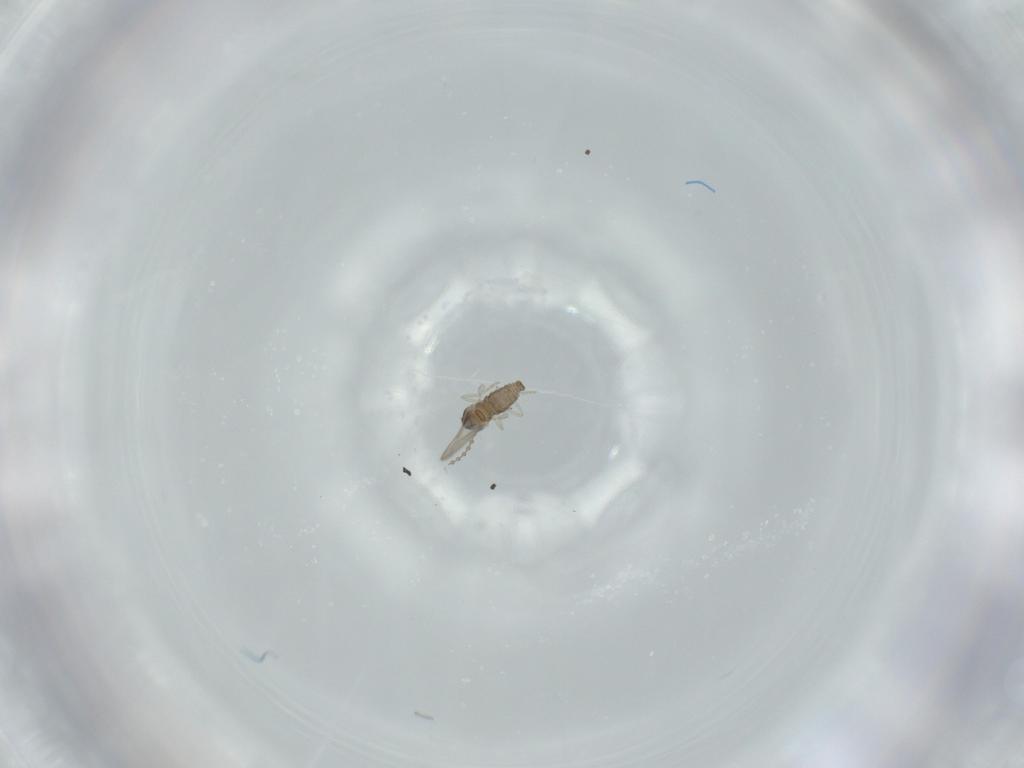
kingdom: Animalia
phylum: Arthropoda
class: Insecta
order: Diptera
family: Cecidomyiidae
